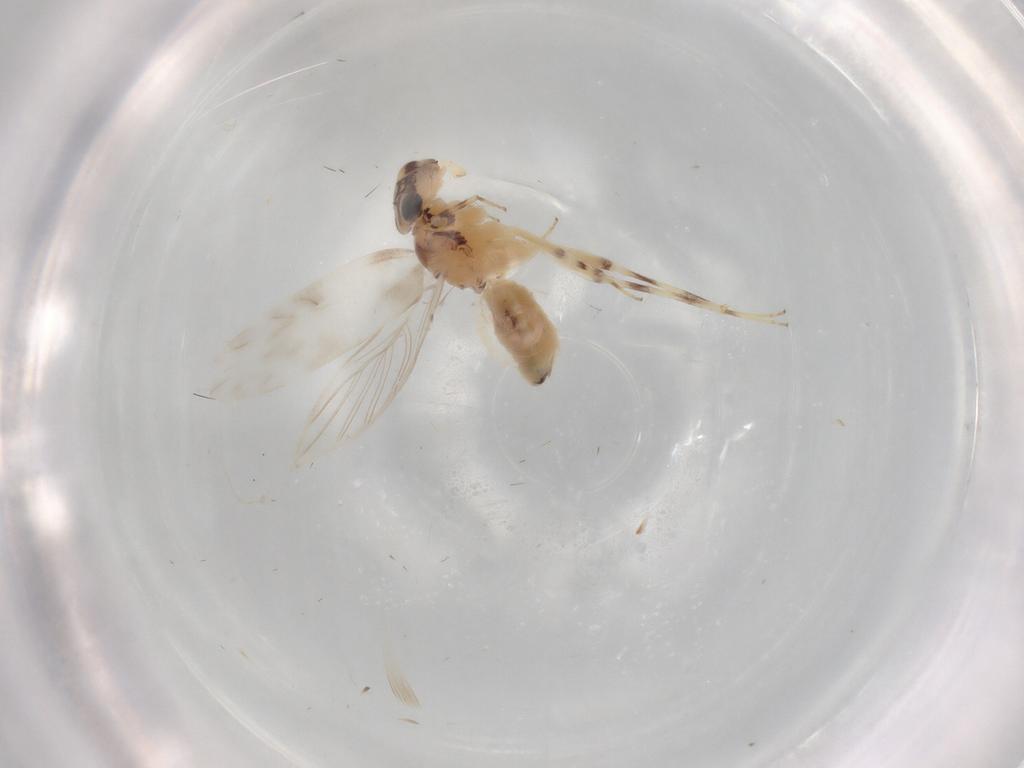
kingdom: Animalia
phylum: Arthropoda
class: Insecta
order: Psocodea
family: Lepidopsocidae
